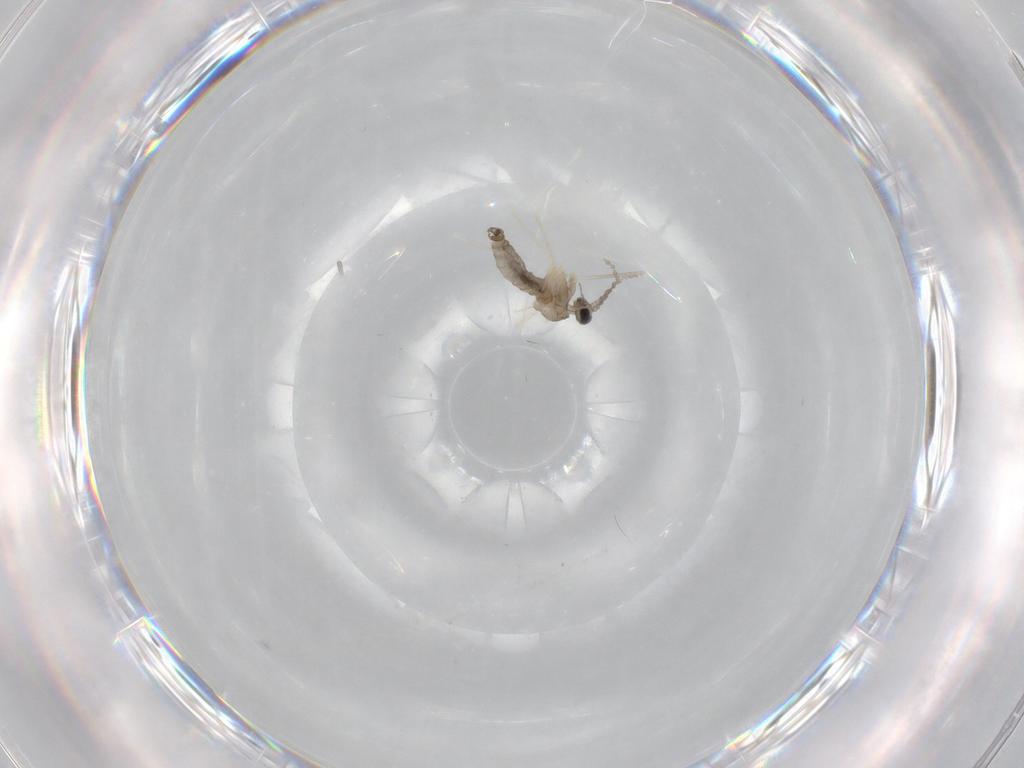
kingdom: Animalia
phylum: Arthropoda
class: Insecta
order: Diptera
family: Cecidomyiidae
